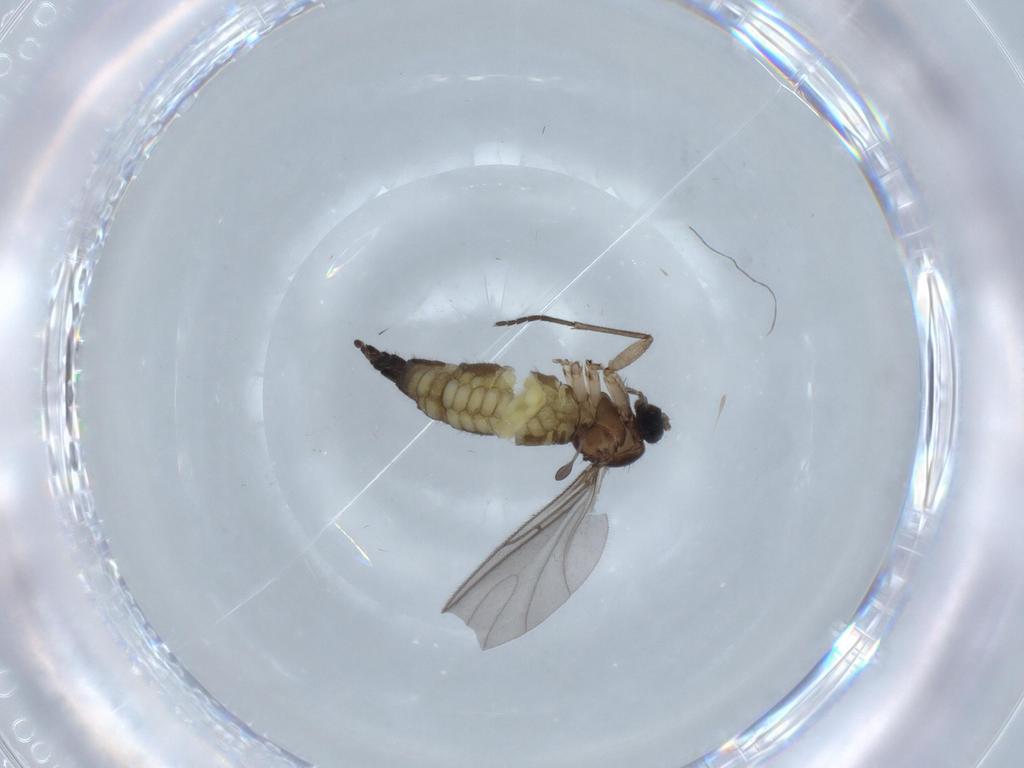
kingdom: Animalia
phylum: Arthropoda
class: Insecta
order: Diptera
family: Sciaridae
